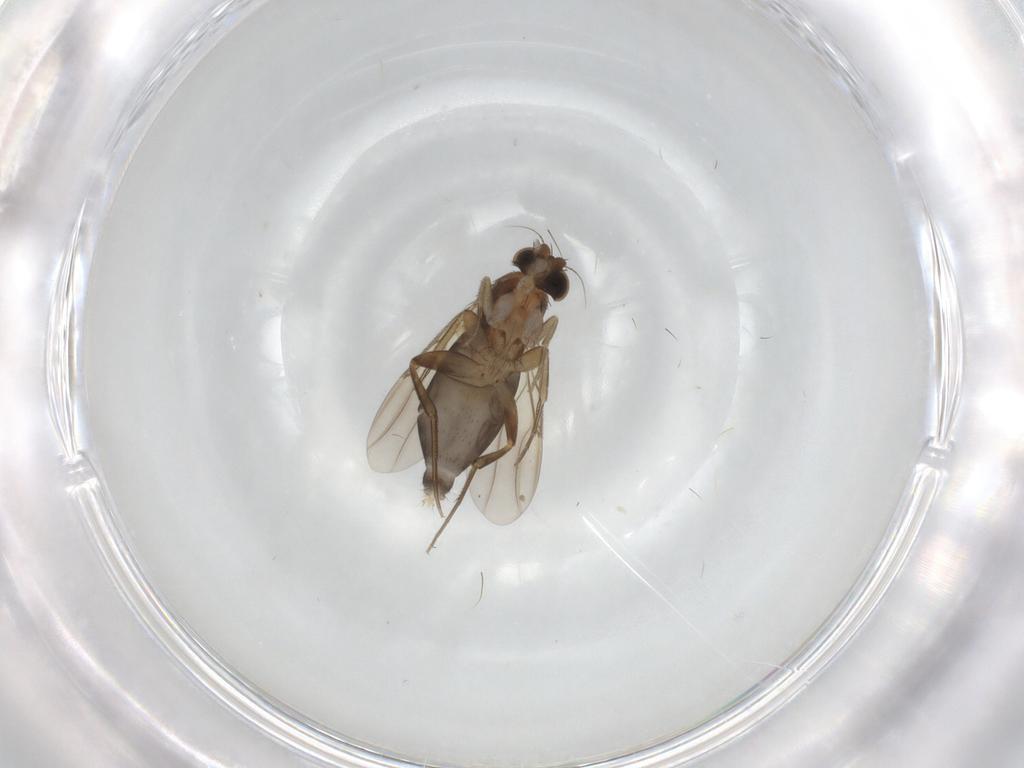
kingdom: Animalia
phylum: Arthropoda
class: Insecta
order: Diptera
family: Phoridae
